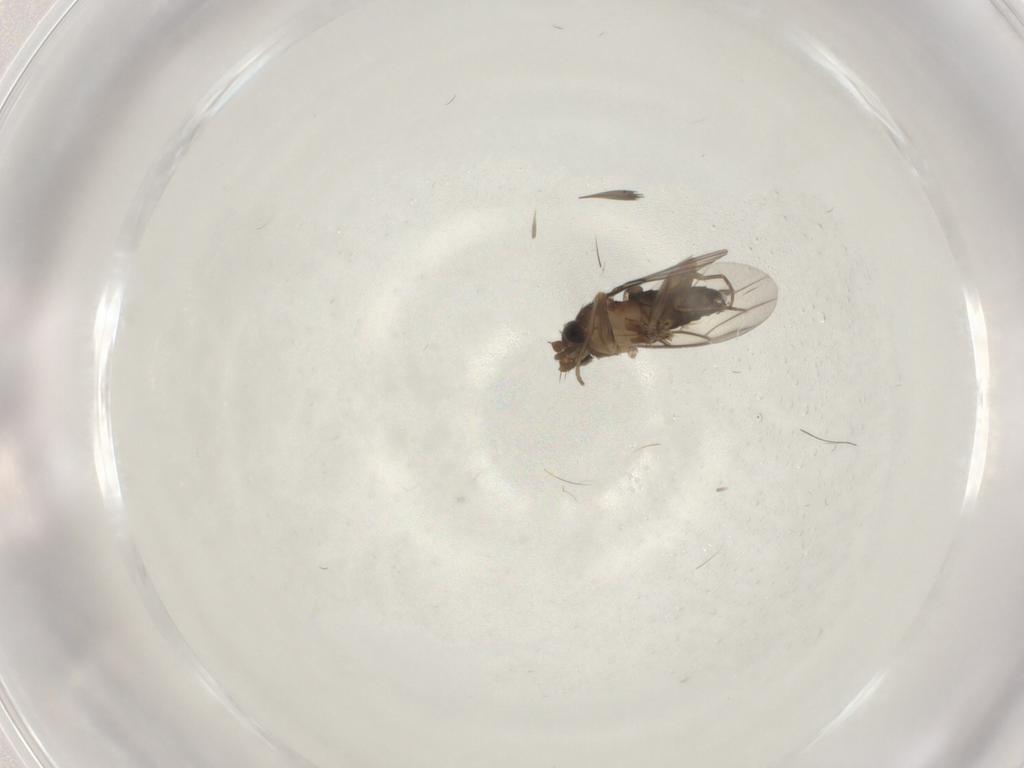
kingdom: Animalia
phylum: Arthropoda
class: Insecta
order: Diptera
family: Phoridae
